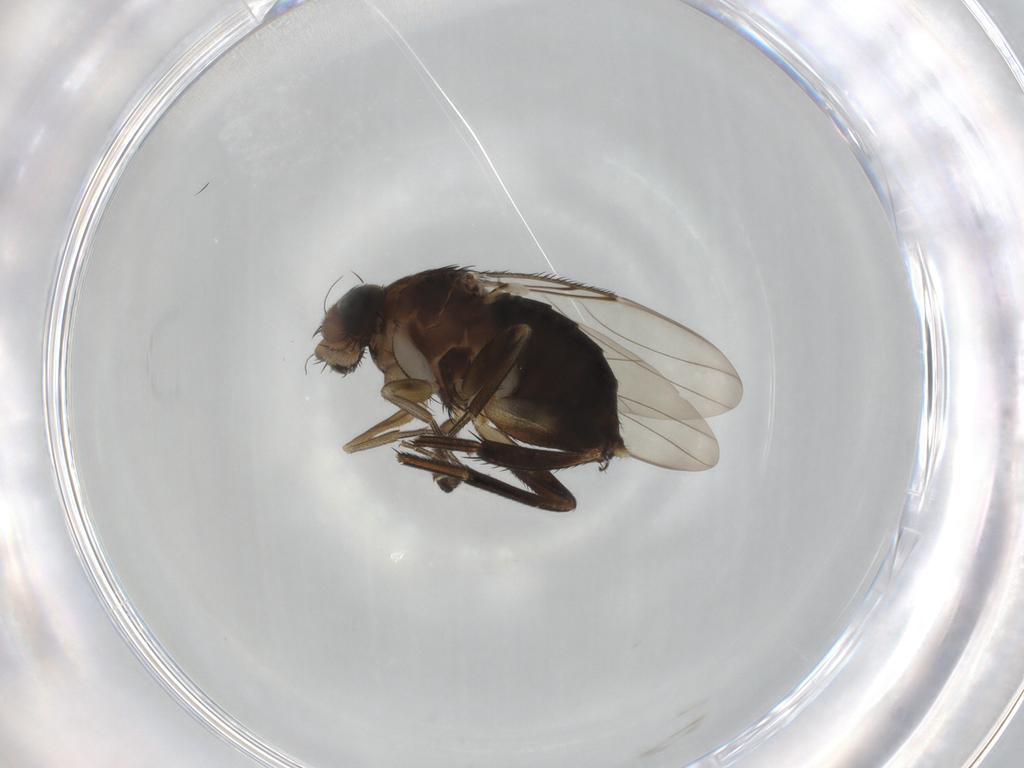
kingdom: Animalia
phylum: Arthropoda
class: Insecta
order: Diptera
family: Phoridae
